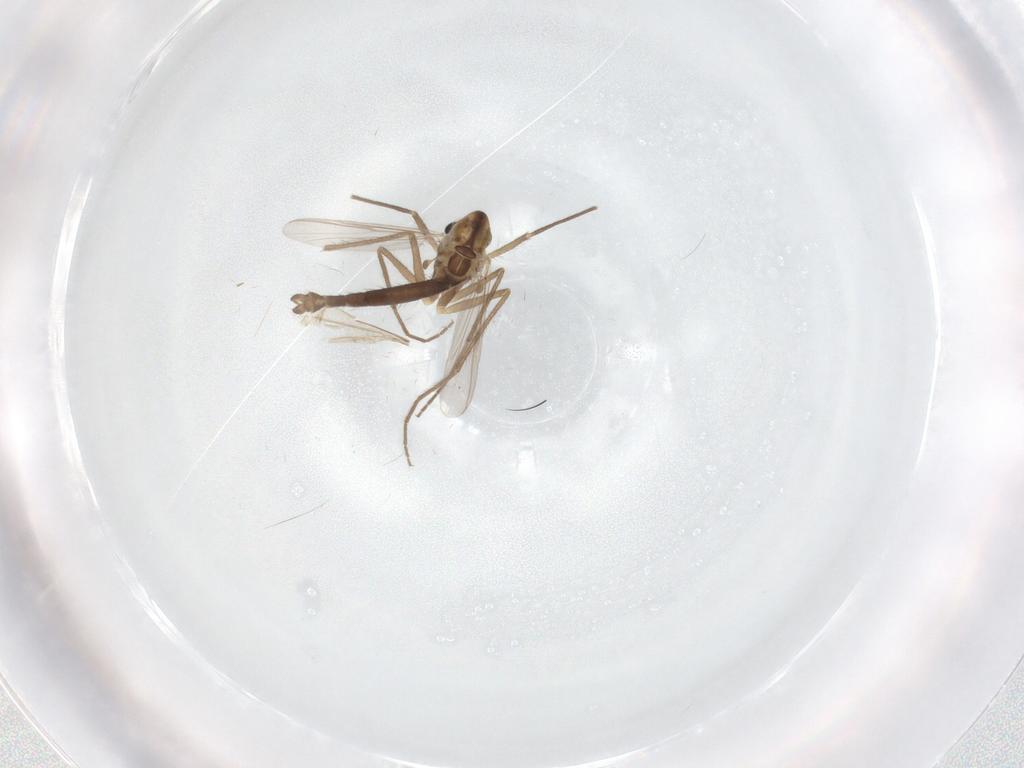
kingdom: Animalia
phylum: Arthropoda
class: Insecta
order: Diptera
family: Chironomidae
